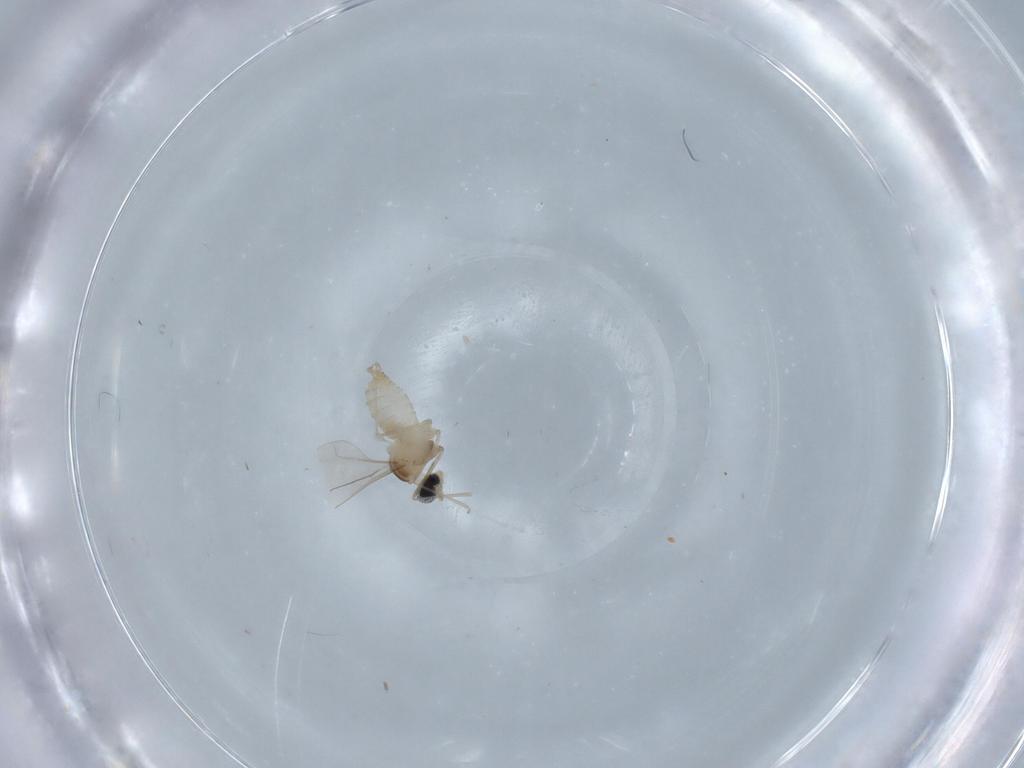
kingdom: Animalia
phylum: Arthropoda
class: Insecta
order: Diptera
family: Cecidomyiidae
